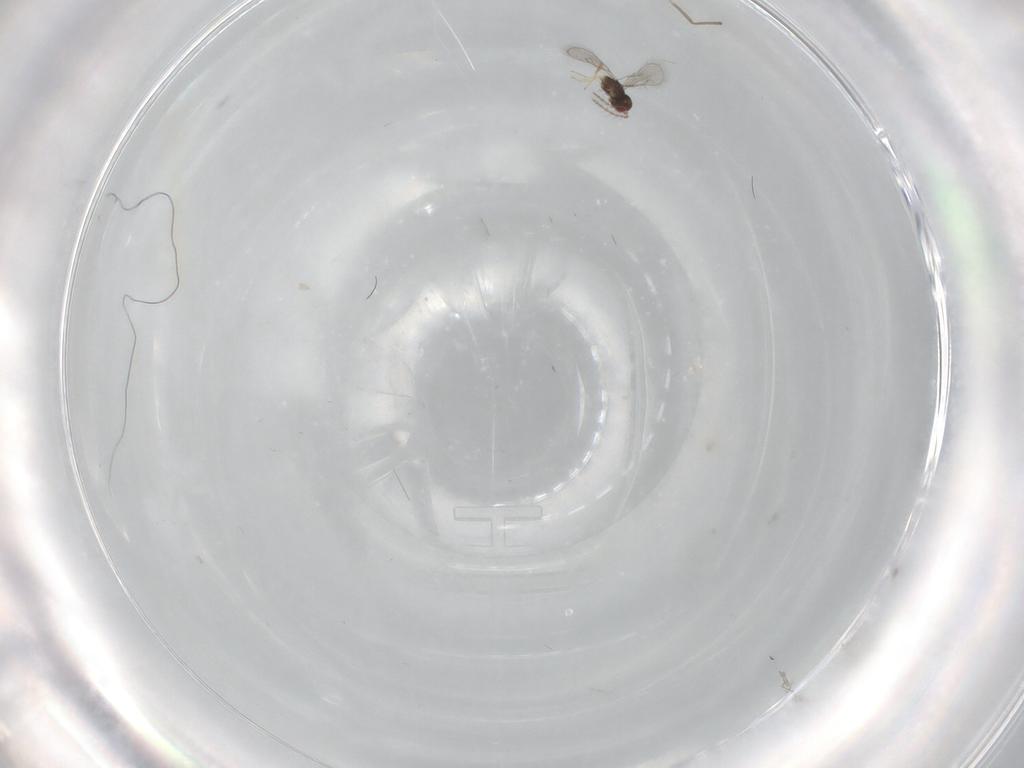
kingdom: Animalia
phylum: Arthropoda
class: Insecta
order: Hymenoptera
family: Eulophidae
